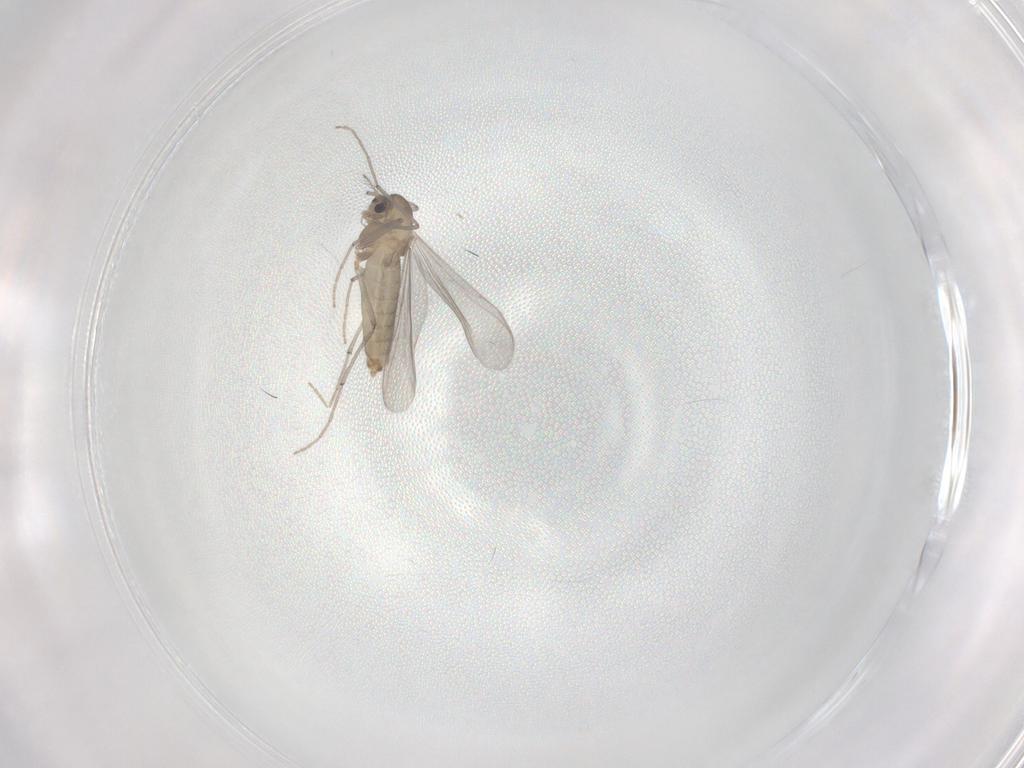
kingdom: Animalia
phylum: Arthropoda
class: Insecta
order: Diptera
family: Chironomidae
